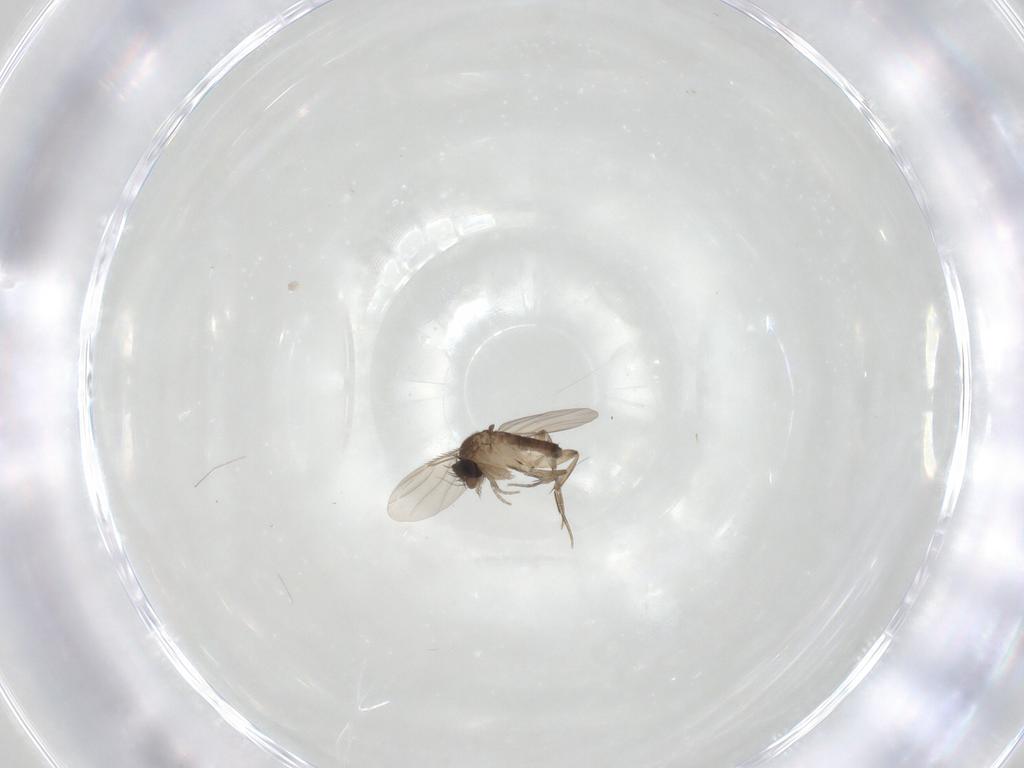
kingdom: Animalia
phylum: Arthropoda
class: Insecta
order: Diptera
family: Phoridae
